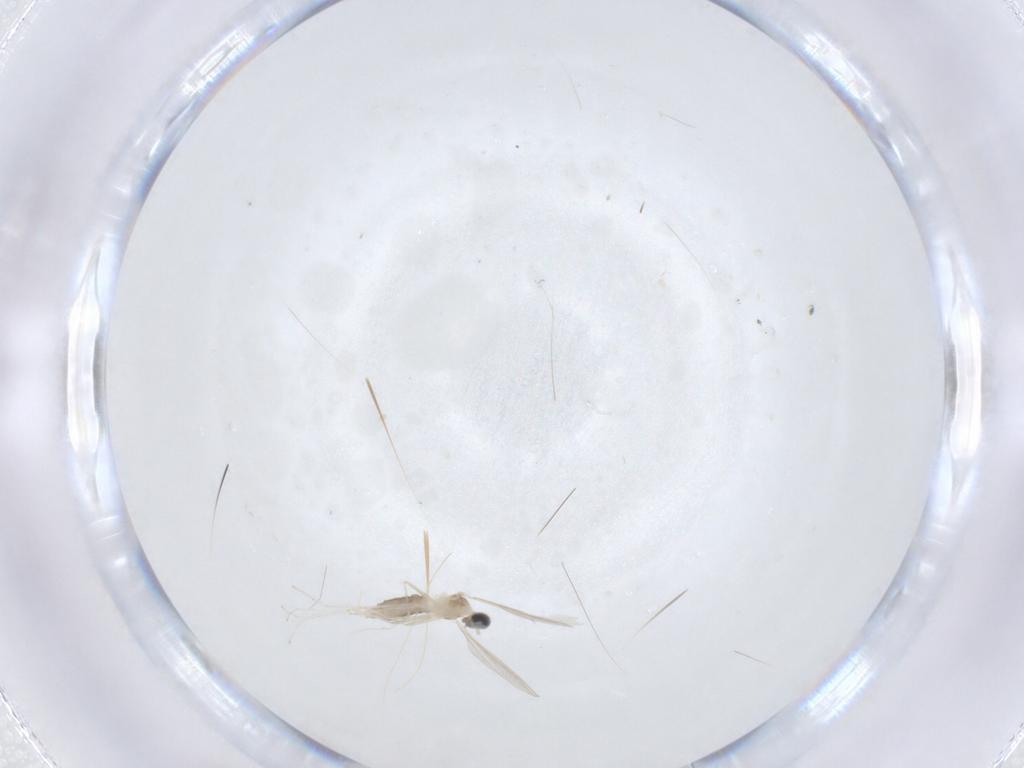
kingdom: Animalia
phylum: Arthropoda
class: Insecta
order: Diptera
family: Cecidomyiidae
